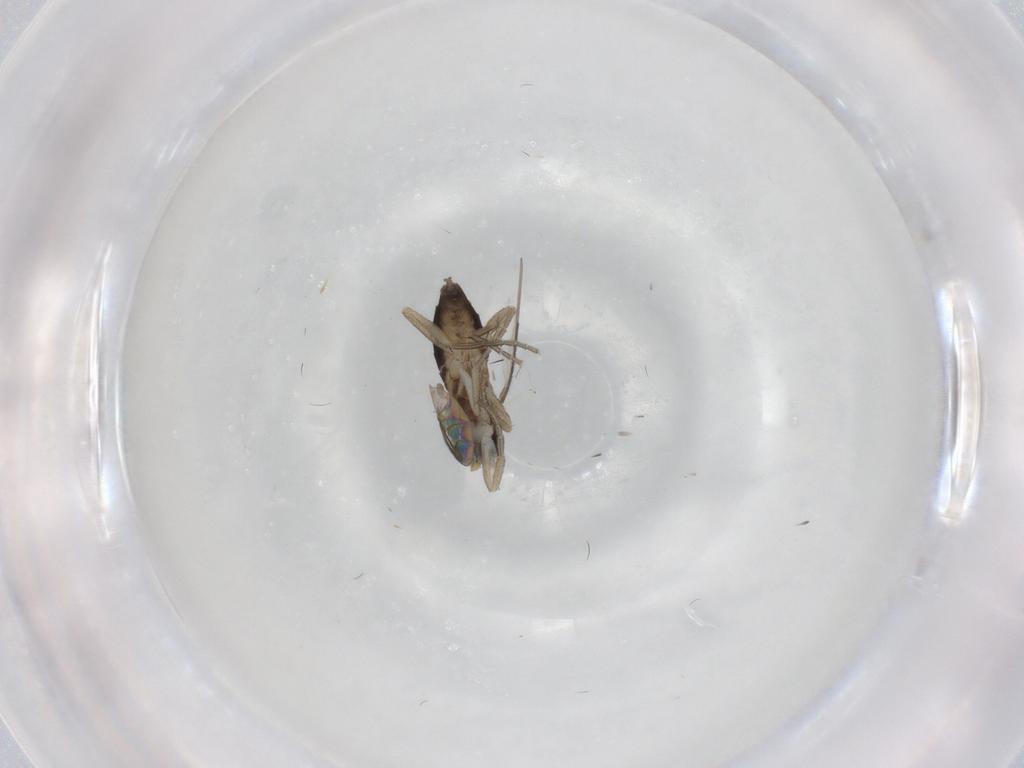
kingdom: Animalia
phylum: Arthropoda
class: Insecta
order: Diptera
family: Phoridae
